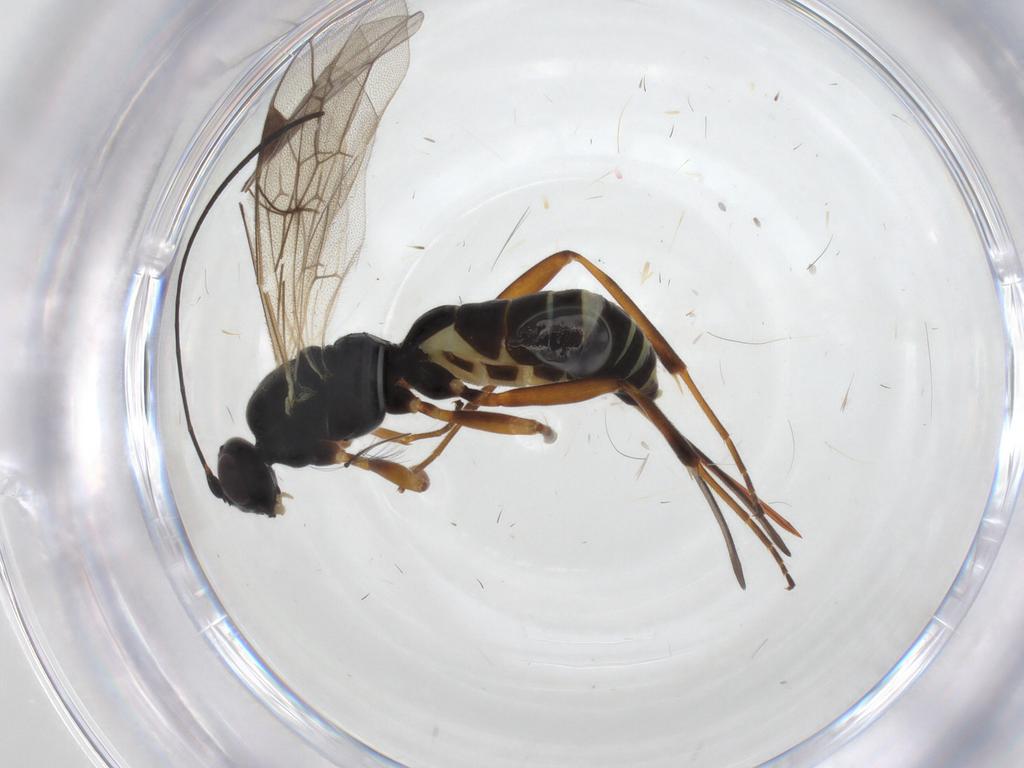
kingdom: Animalia
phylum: Arthropoda
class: Insecta
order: Hymenoptera
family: Ichneumonidae
